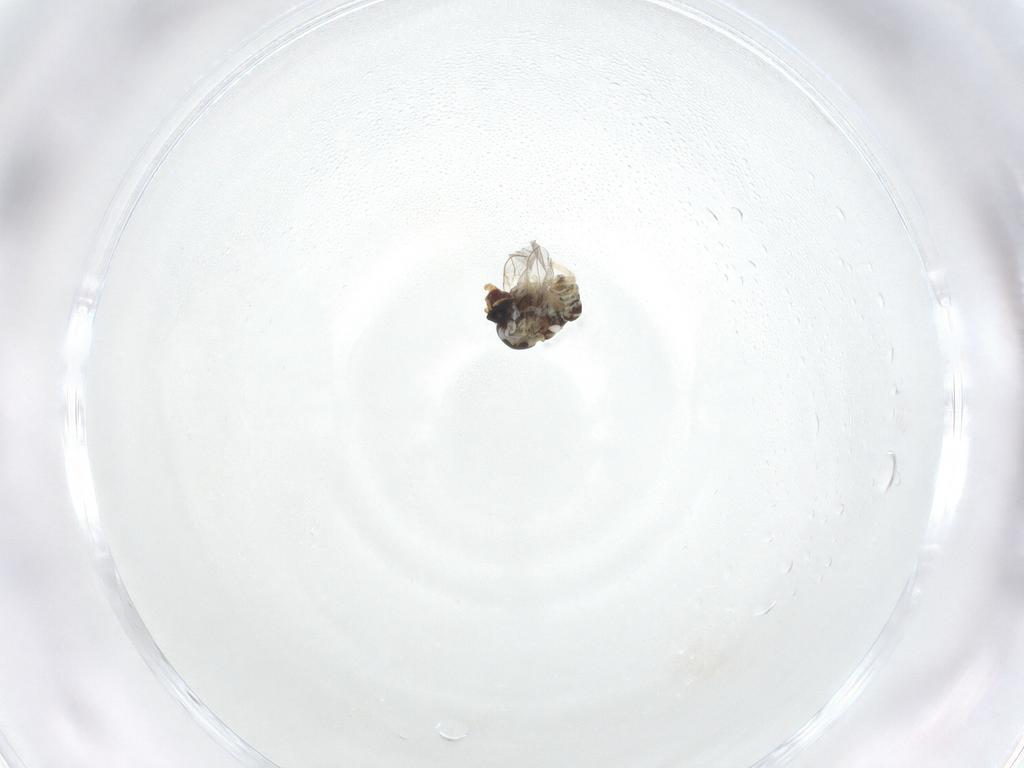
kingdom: Animalia
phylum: Arthropoda
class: Insecta
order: Diptera
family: Bombyliidae
